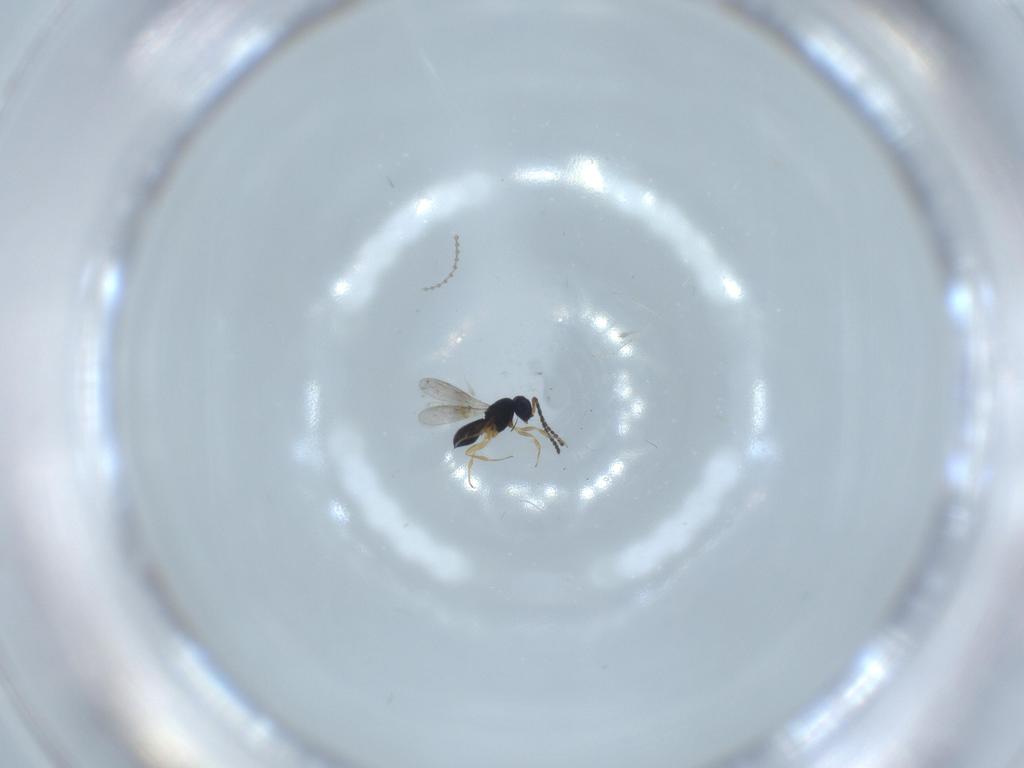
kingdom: Animalia
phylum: Arthropoda
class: Insecta
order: Hymenoptera
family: Scelionidae
